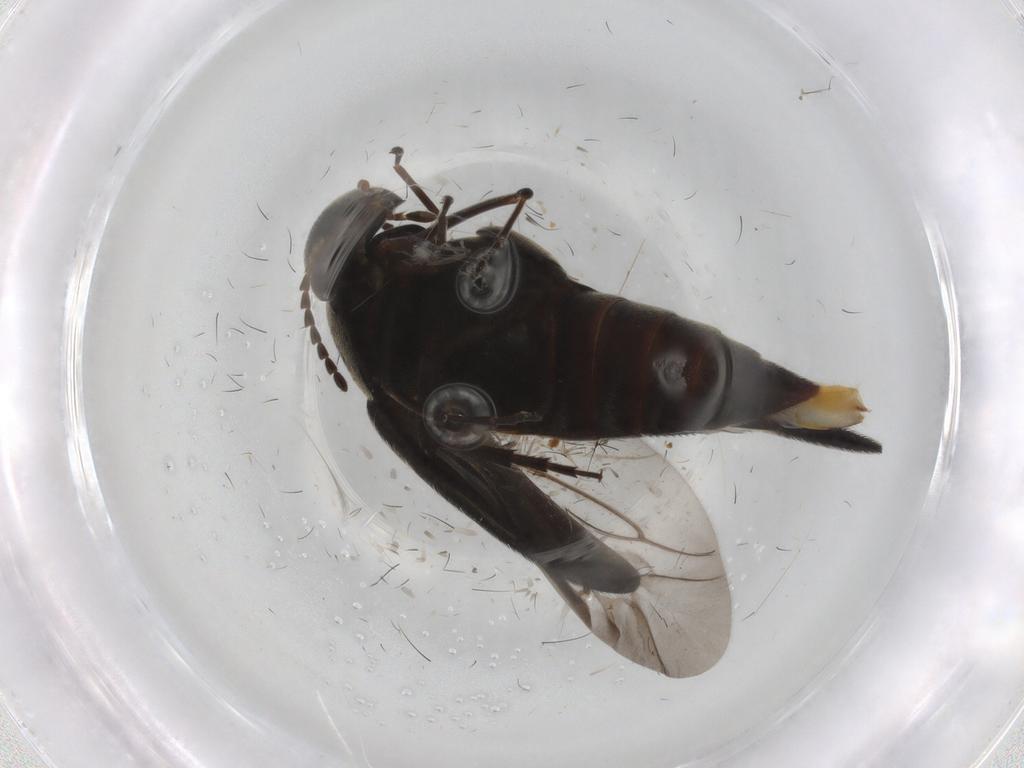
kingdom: Animalia
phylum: Arthropoda
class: Insecta
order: Coleoptera
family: Mordellidae
